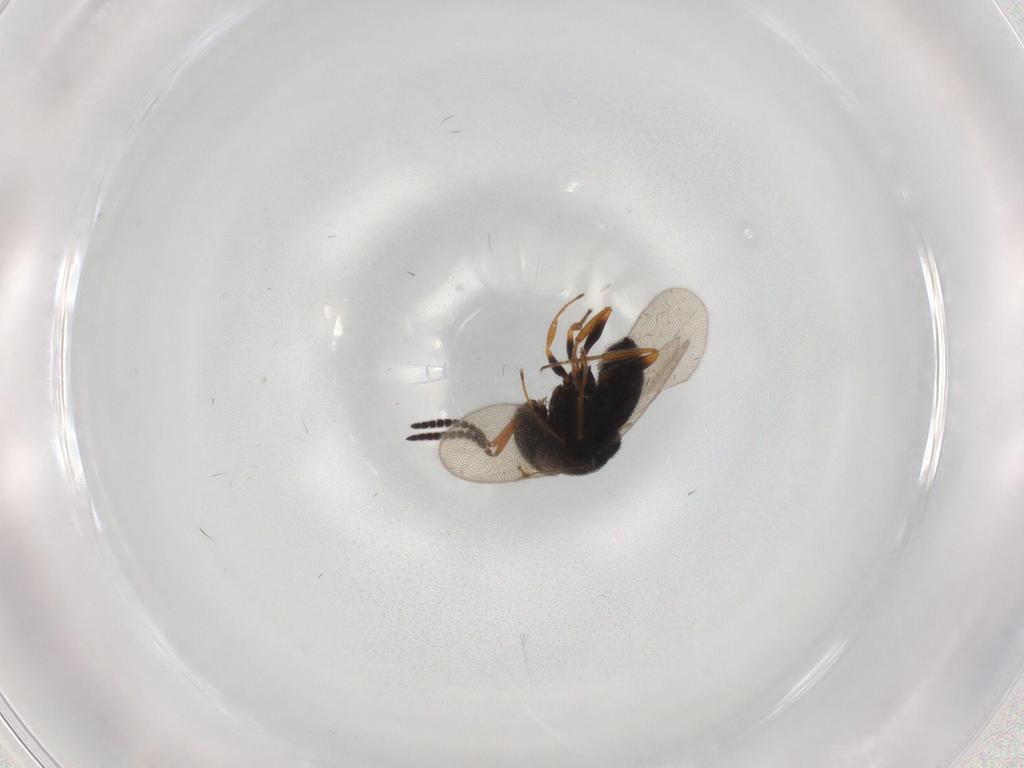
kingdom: Animalia
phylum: Arthropoda
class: Insecta
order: Hymenoptera
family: Scelionidae
